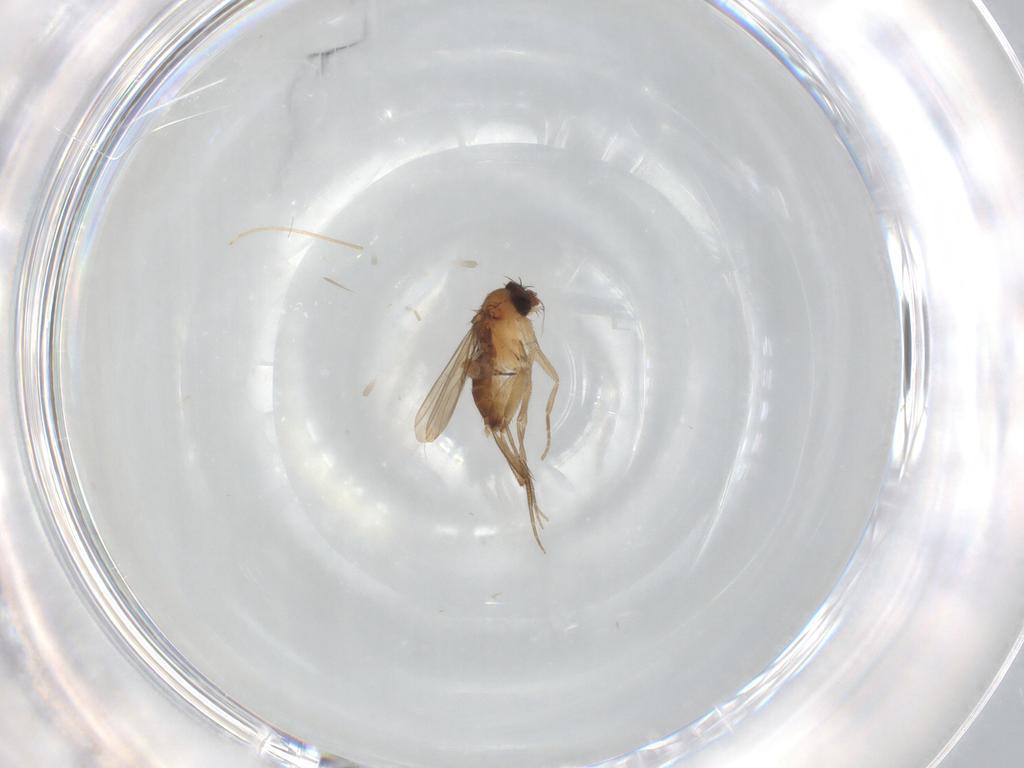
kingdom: Animalia
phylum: Arthropoda
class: Insecta
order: Diptera
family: Phoridae
